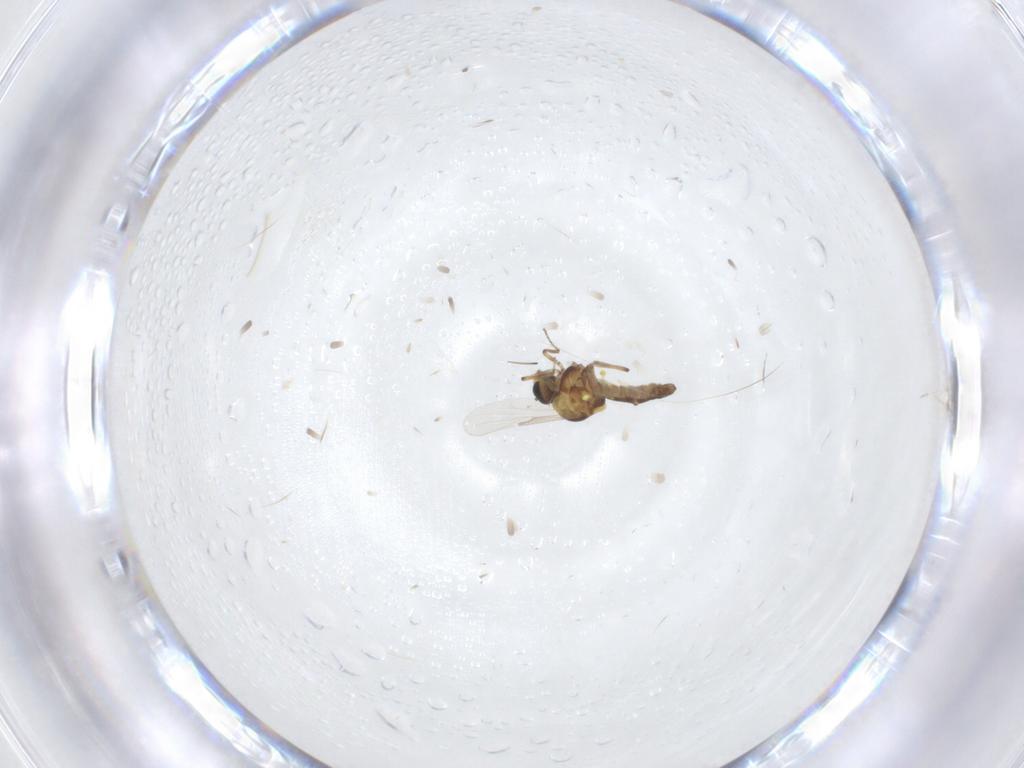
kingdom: Animalia
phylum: Arthropoda
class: Insecta
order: Diptera
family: Ceratopogonidae
